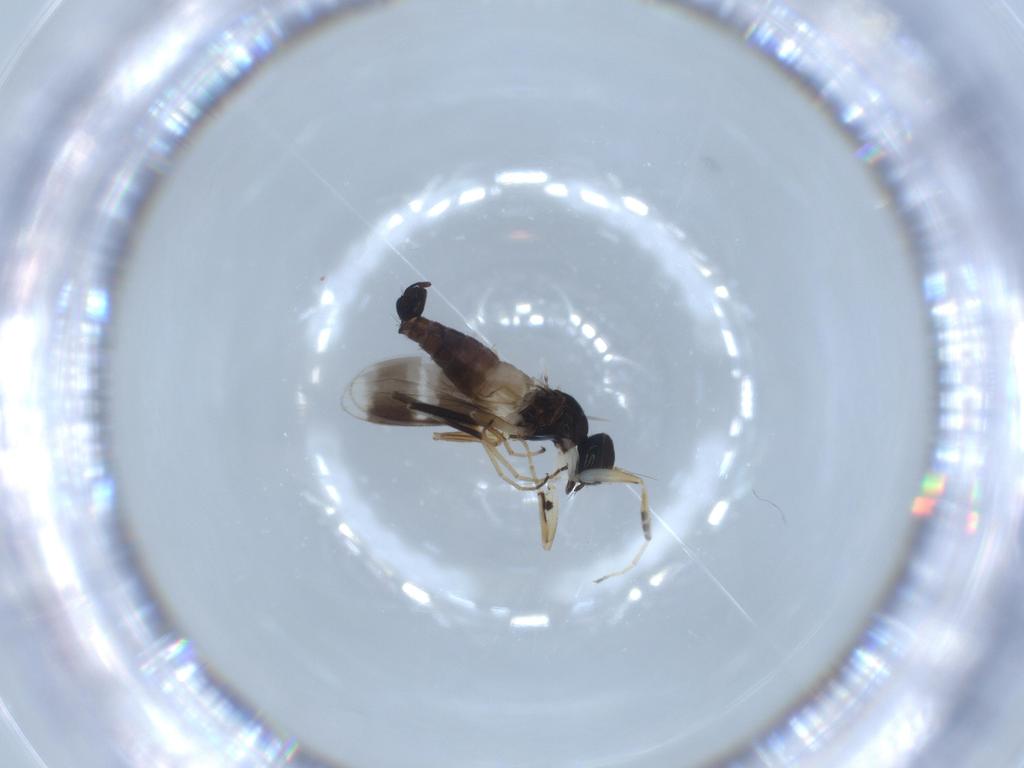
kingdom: Animalia
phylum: Arthropoda
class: Insecta
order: Diptera
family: Hybotidae
